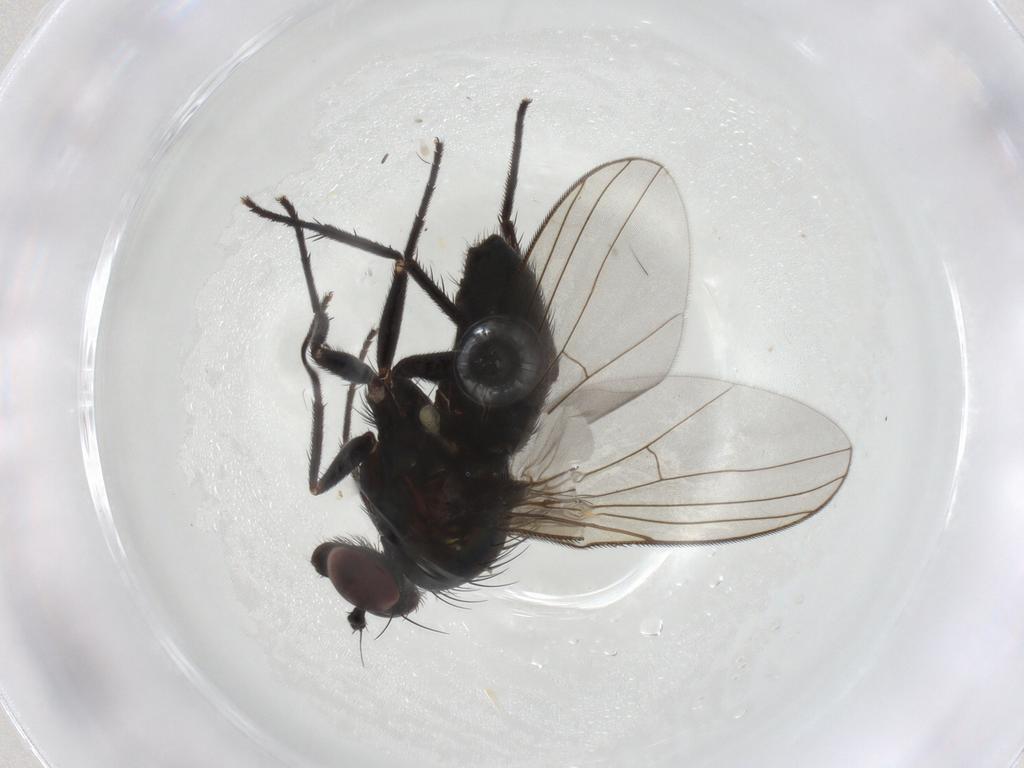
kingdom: Animalia
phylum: Arthropoda
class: Insecta
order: Diptera
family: Dolichopodidae
